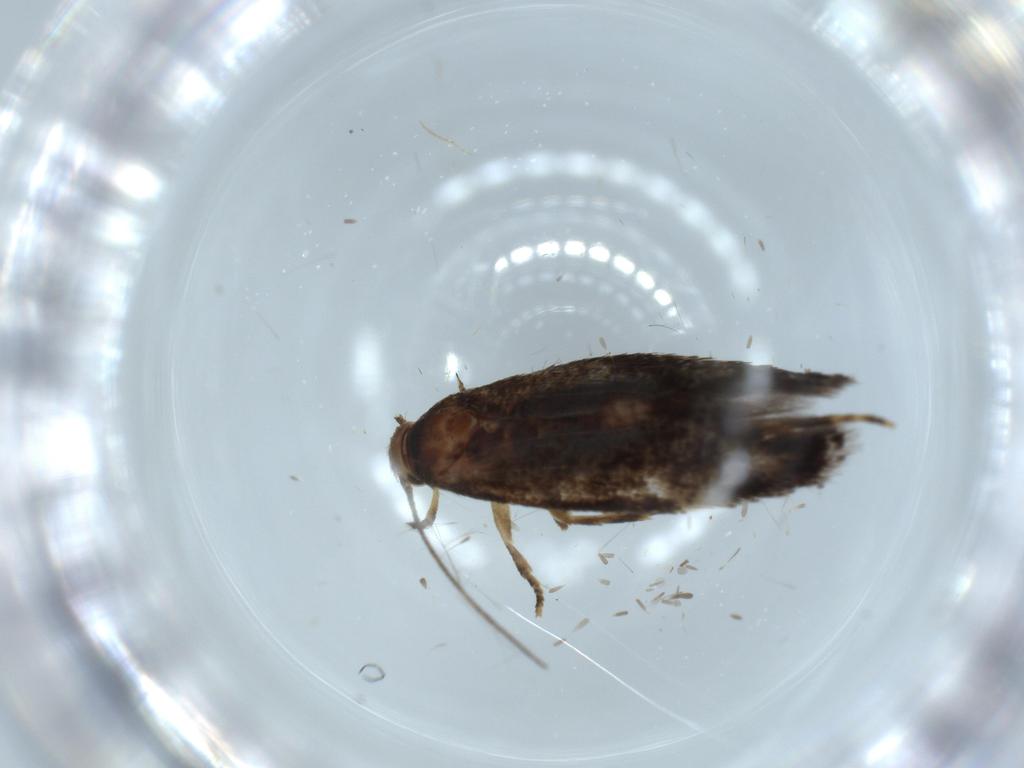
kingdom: Animalia
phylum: Arthropoda
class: Insecta
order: Lepidoptera
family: Gelechiidae
